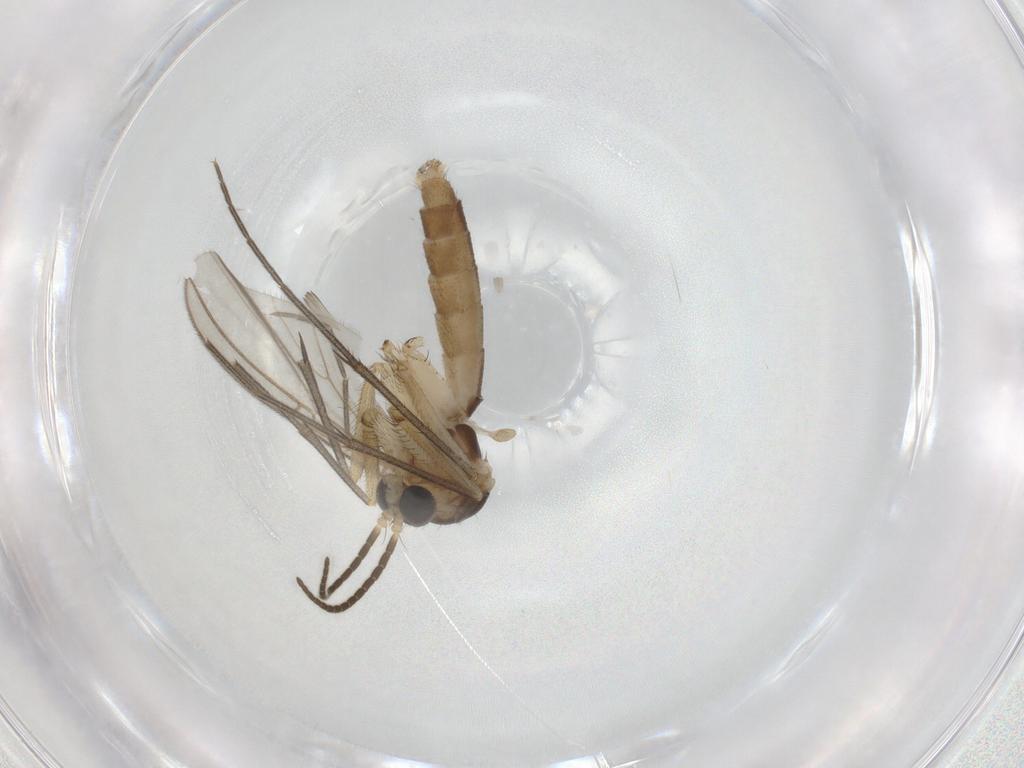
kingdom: Animalia
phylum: Arthropoda
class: Insecta
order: Diptera
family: Mycetophilidae
